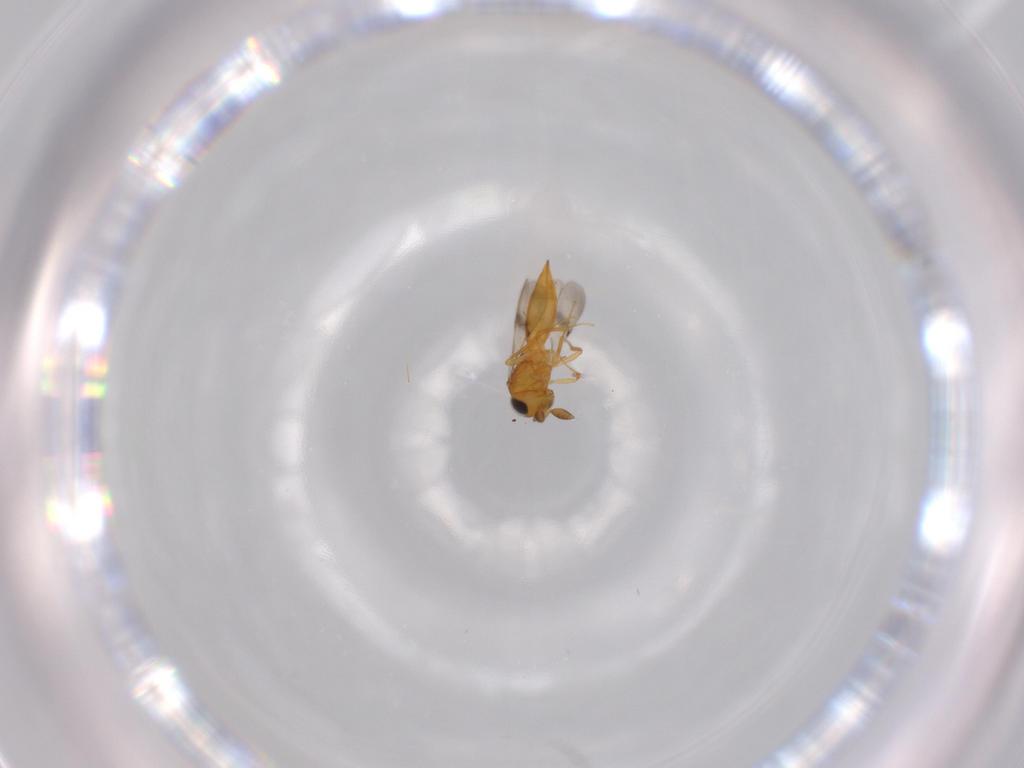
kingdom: Animalia
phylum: Arthropoda
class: Insecta
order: Hymenoptera
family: Scelionidae
